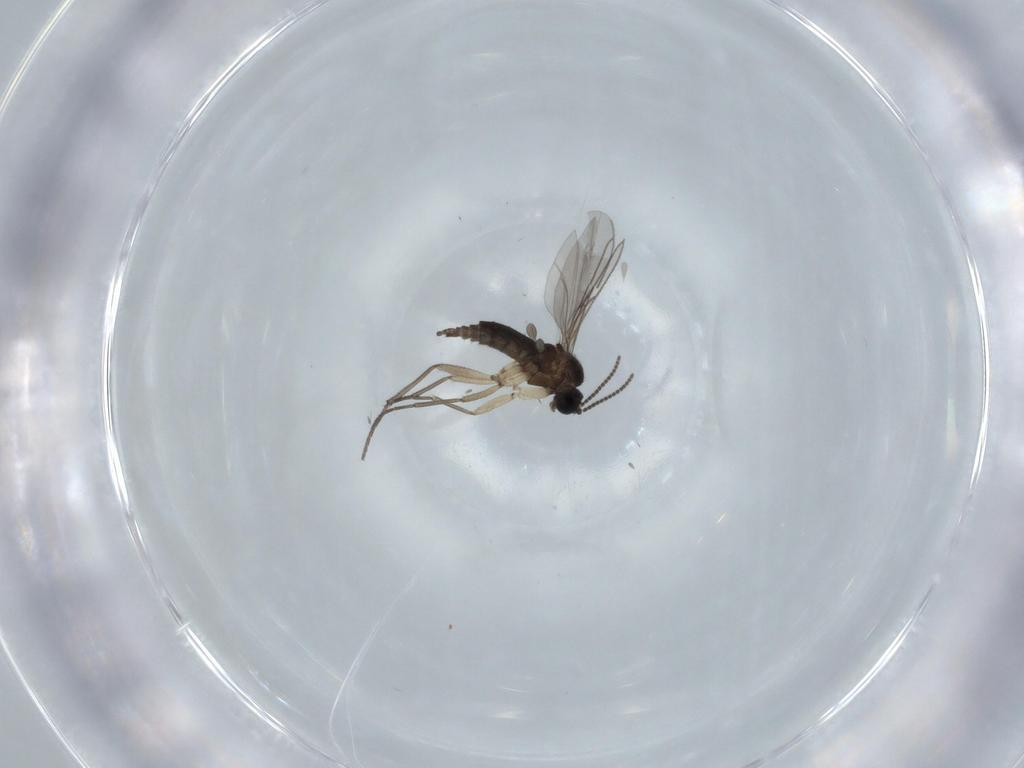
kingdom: Animalia
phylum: Arthropoda
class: Insecta
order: Diptera
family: Sciaridae
